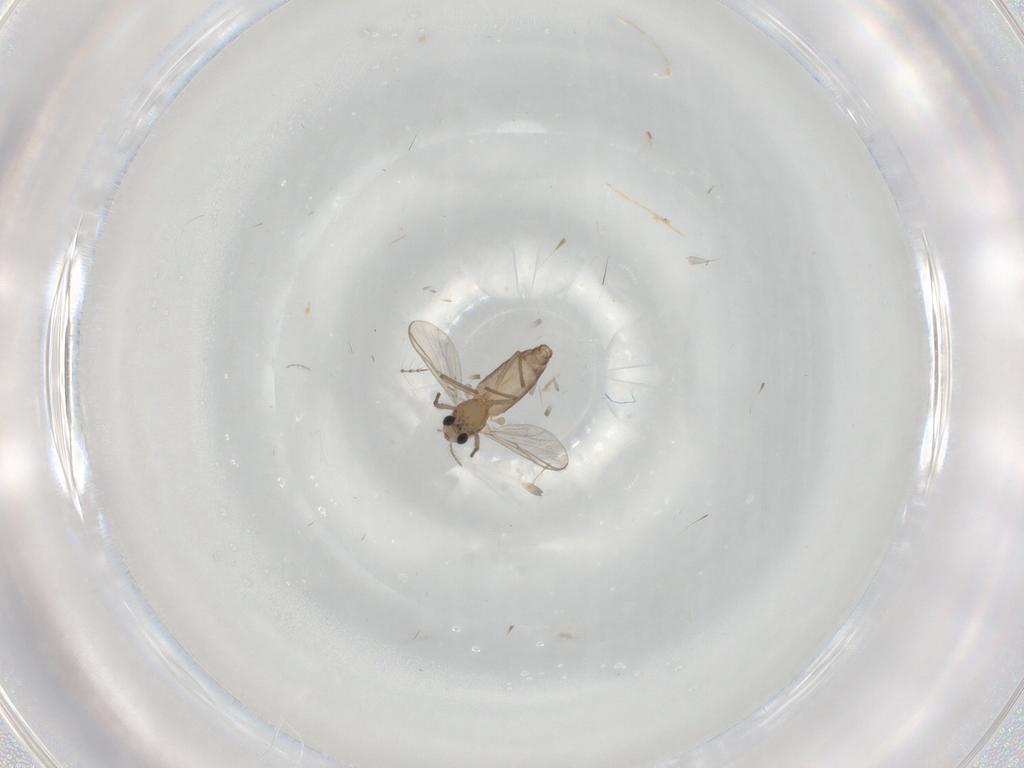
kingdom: Animalia
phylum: Arthropoda
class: Insecta
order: Diptera
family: Chironomidae
